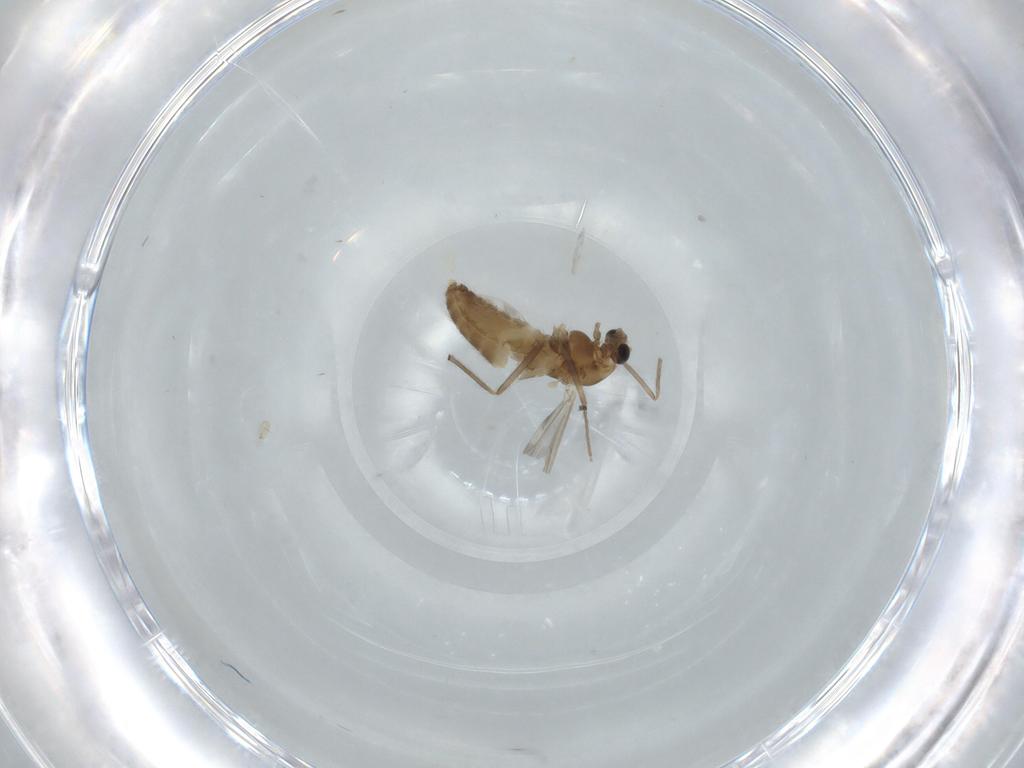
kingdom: Animalia
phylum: Arthropoda
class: Insecta
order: Diptera
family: Chironomidae
